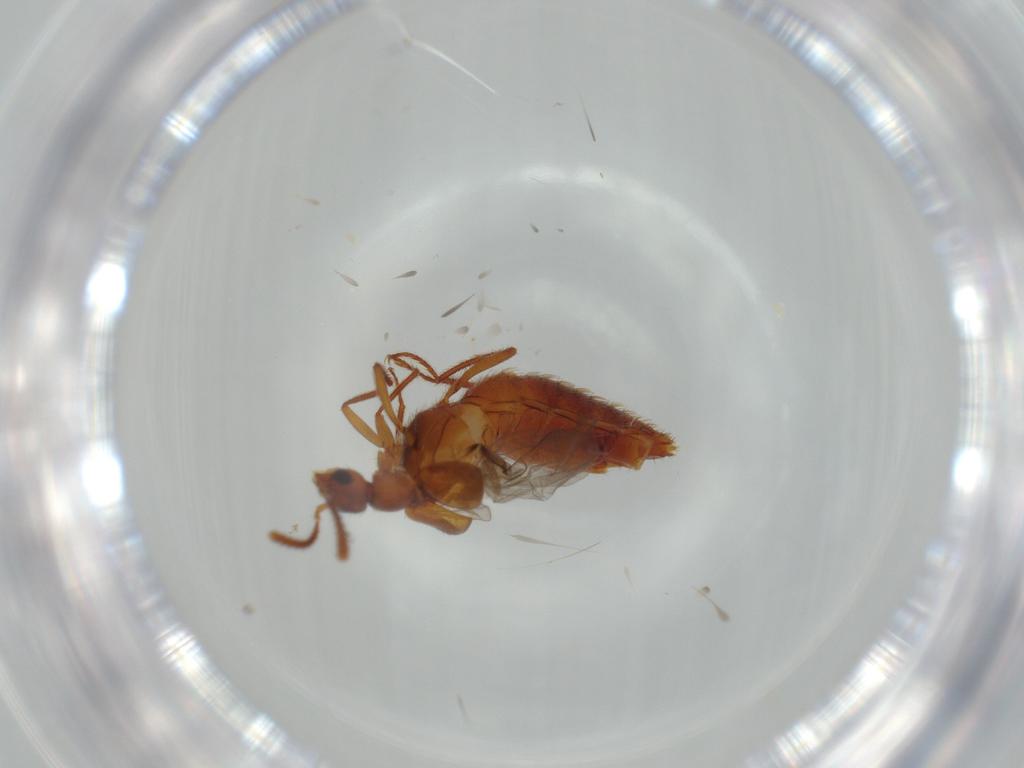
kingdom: Animalia
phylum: Arthropoda
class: Insecta
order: Coleoptera
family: Staphylinidae
